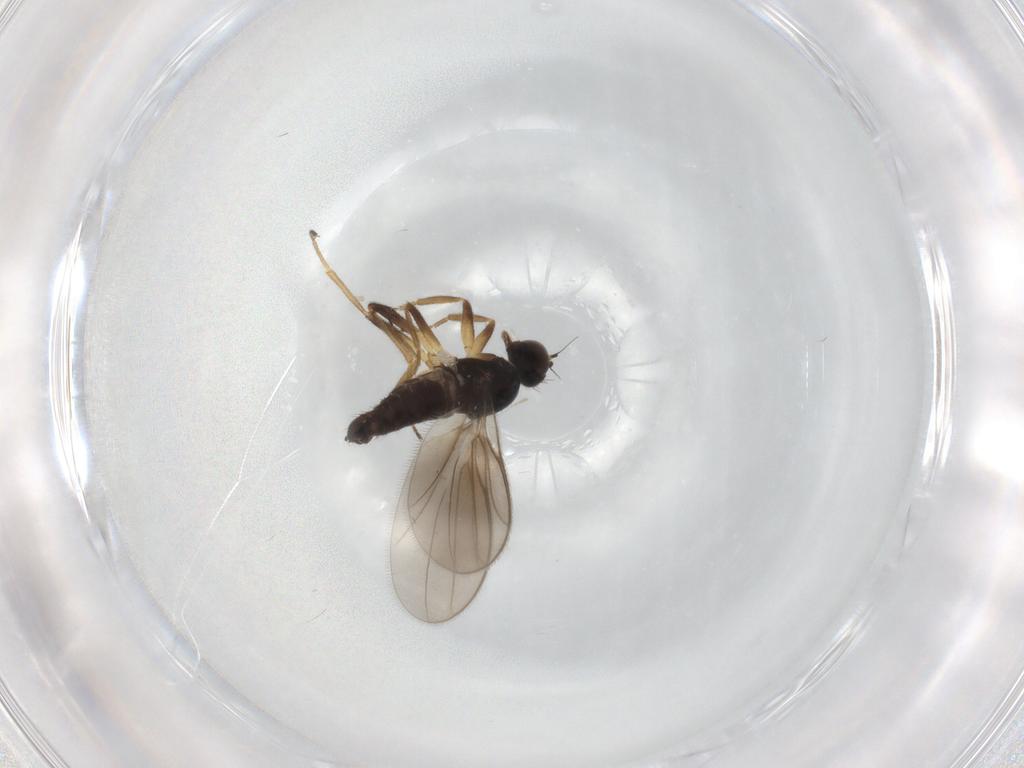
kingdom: Animalia
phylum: Arthropoda
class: Insecta
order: Diptera
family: Hybotidae
